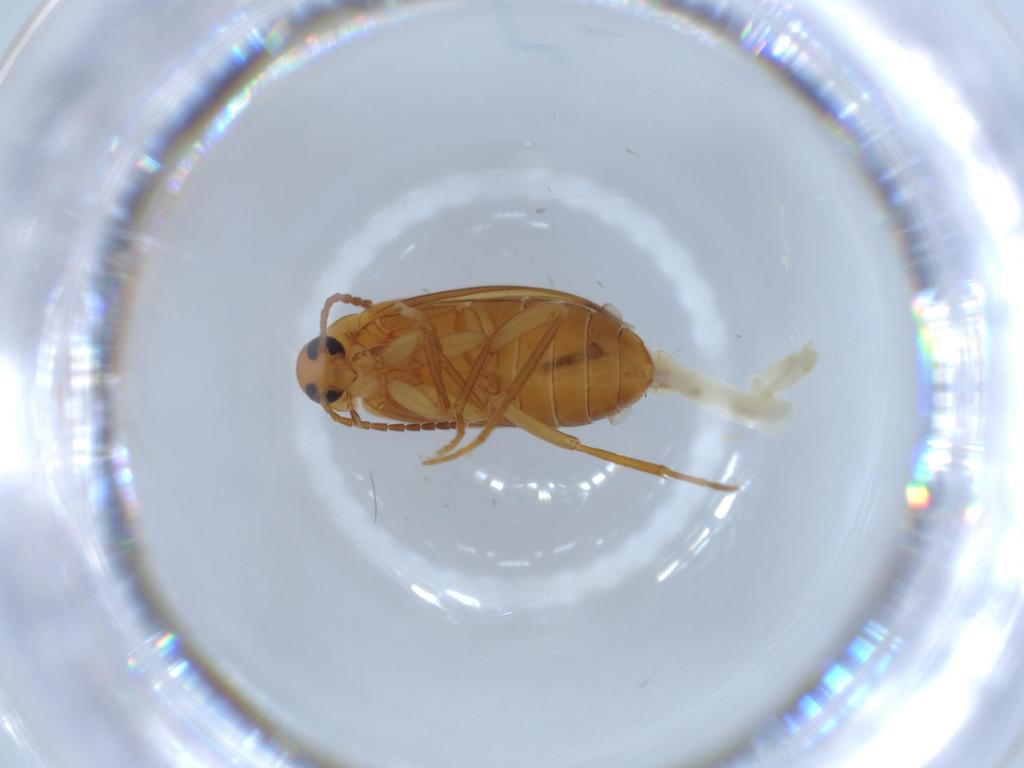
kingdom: Animalia
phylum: Arthropoda
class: Insecta
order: Coleoptera
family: Scraptiidae
